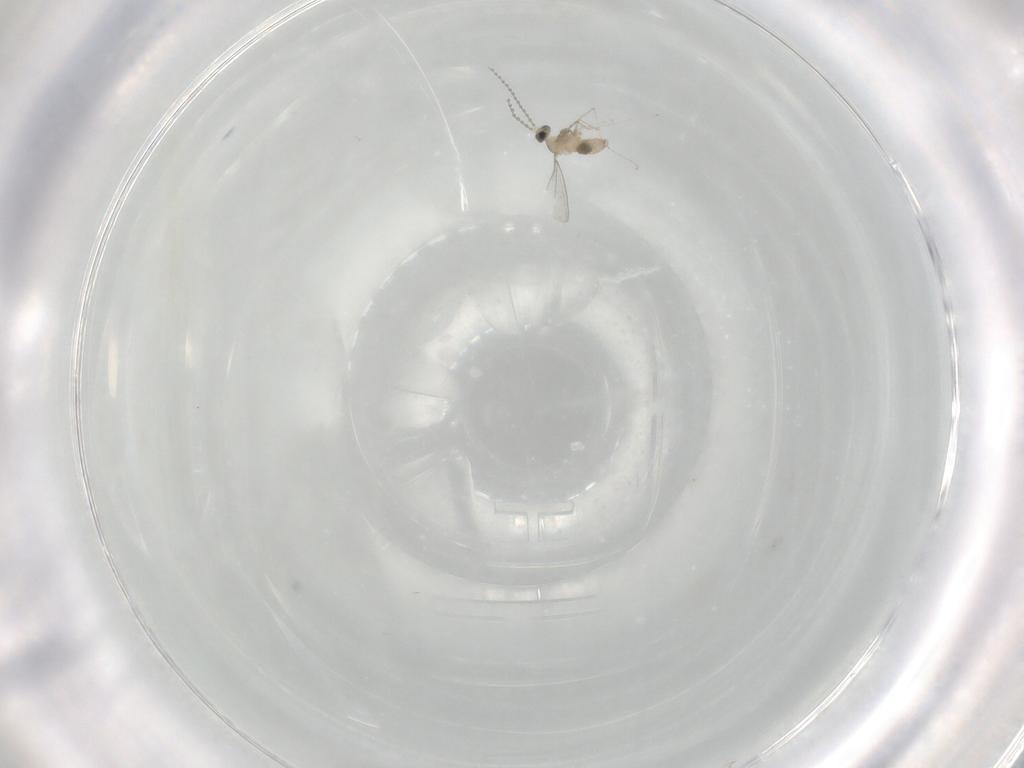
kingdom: Animalia
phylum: Arthropoda
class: Insecta
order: Diptera
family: Cecidomyiidae
